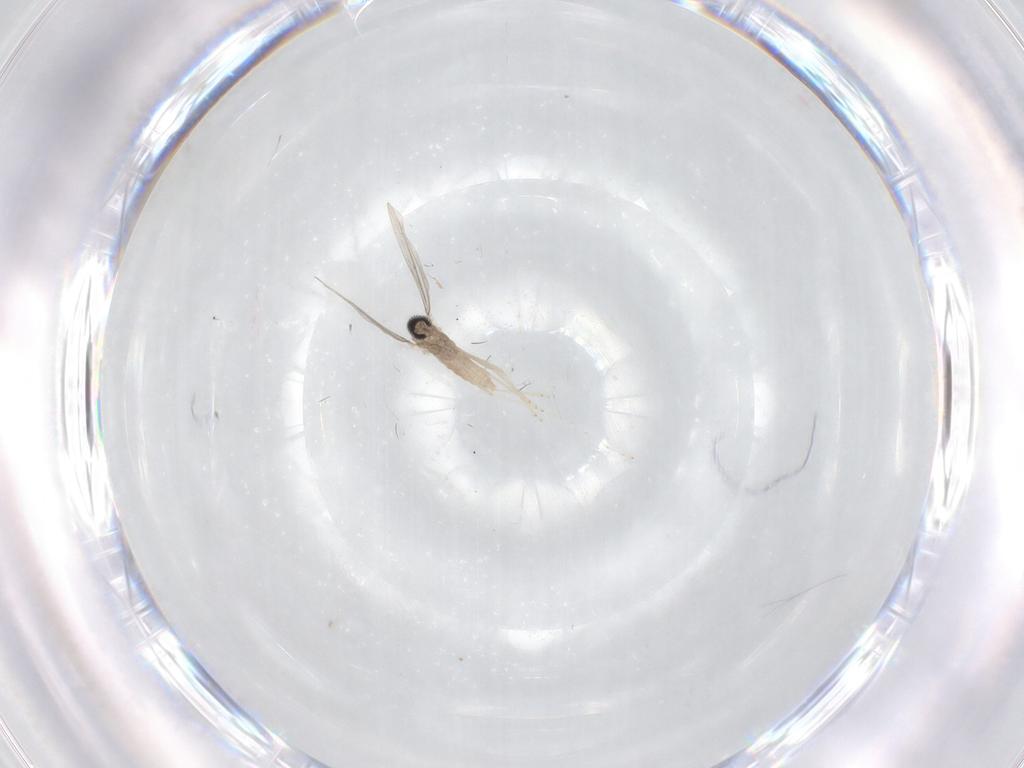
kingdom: Animalia
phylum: Arthropoda
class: Insecta
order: Diptera
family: Cecidomyiidae
